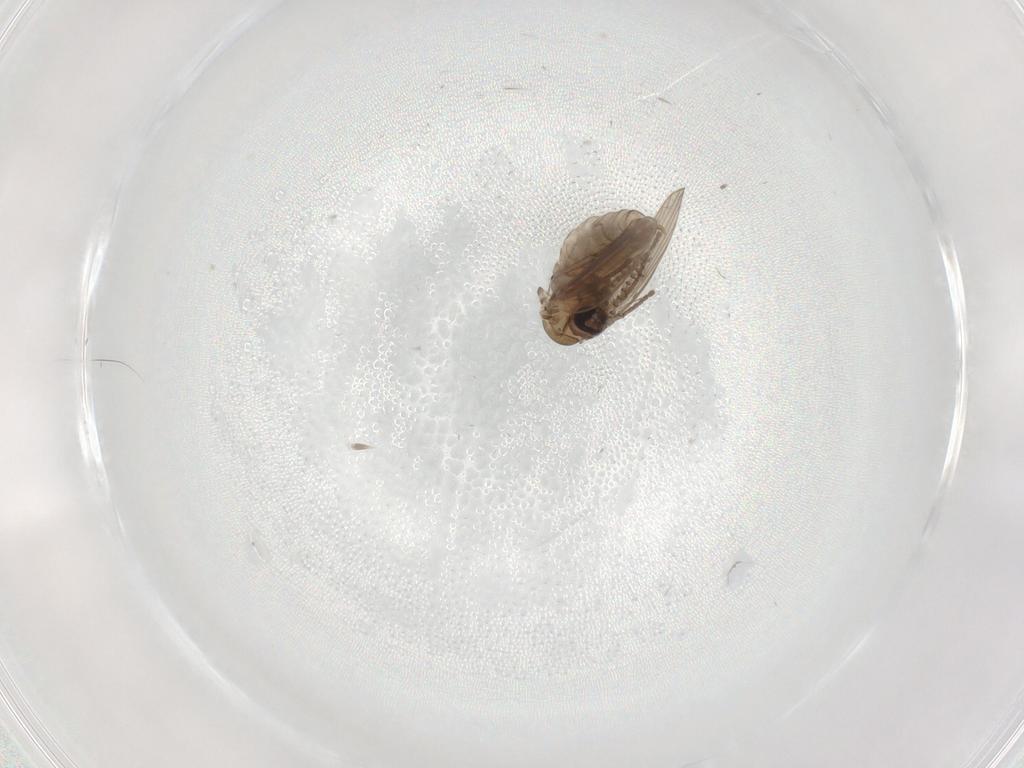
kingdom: Animalia
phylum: Arthropoda
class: Insecta
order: Diptera
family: Psychodidae
